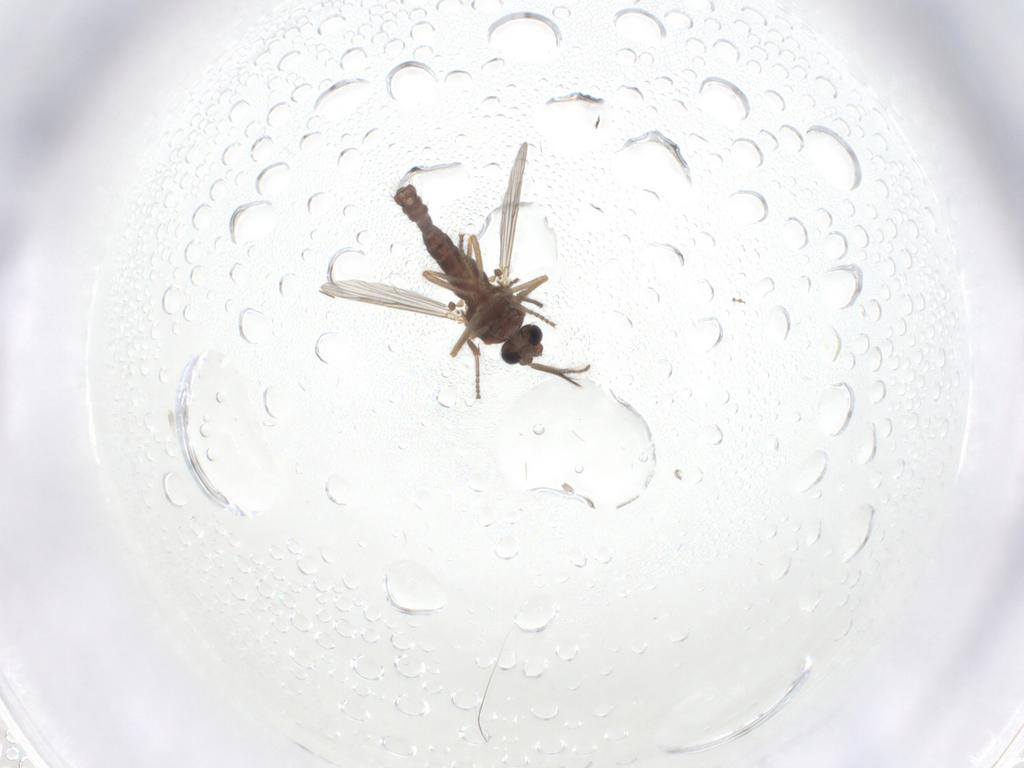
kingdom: Animalia
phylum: Arthropoda
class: Insecta
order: Diptera
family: Ceratopogonidae
